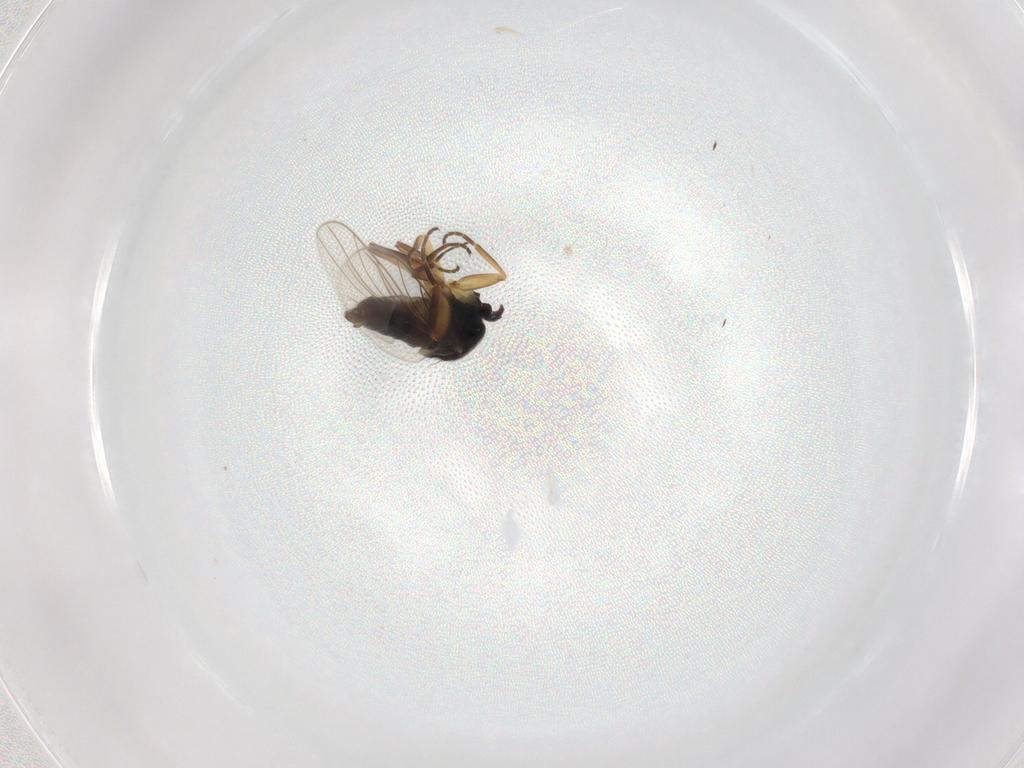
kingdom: Animalia
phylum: Arthropoda
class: Insecta
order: Diptera
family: Hybotidae
